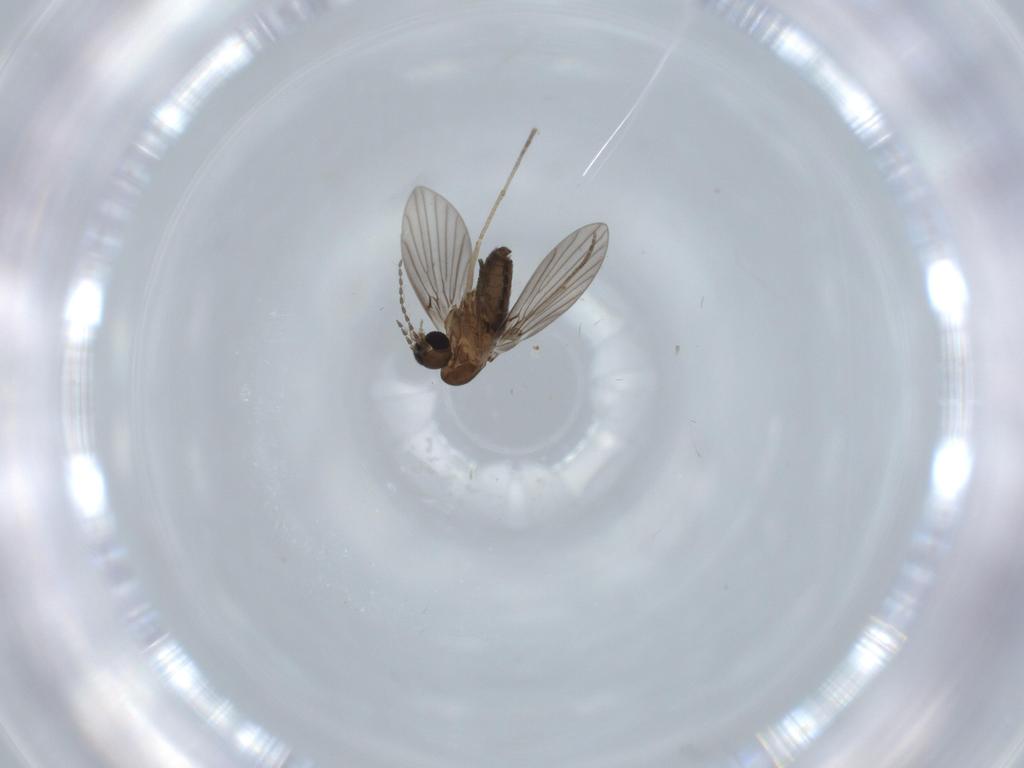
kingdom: Animalia
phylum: Arthropoda
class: Insecta
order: Diptera
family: Psychodidae
